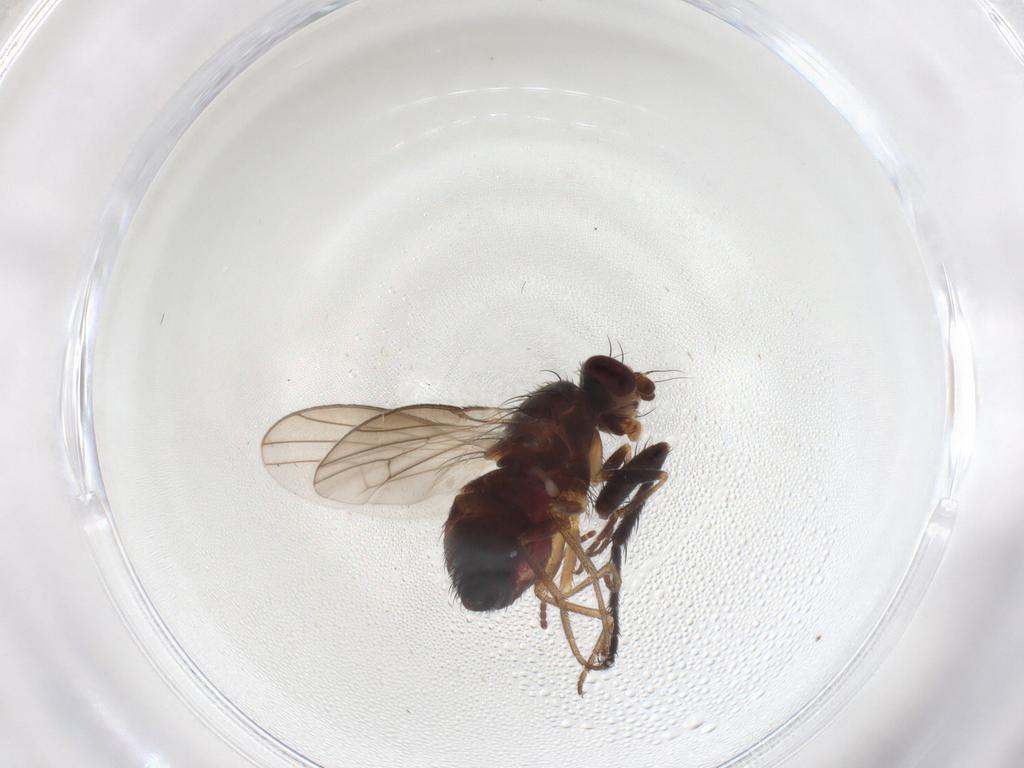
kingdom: Animalia
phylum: Arthropoda
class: Insecta
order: Diptera
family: Heleomyzidae
